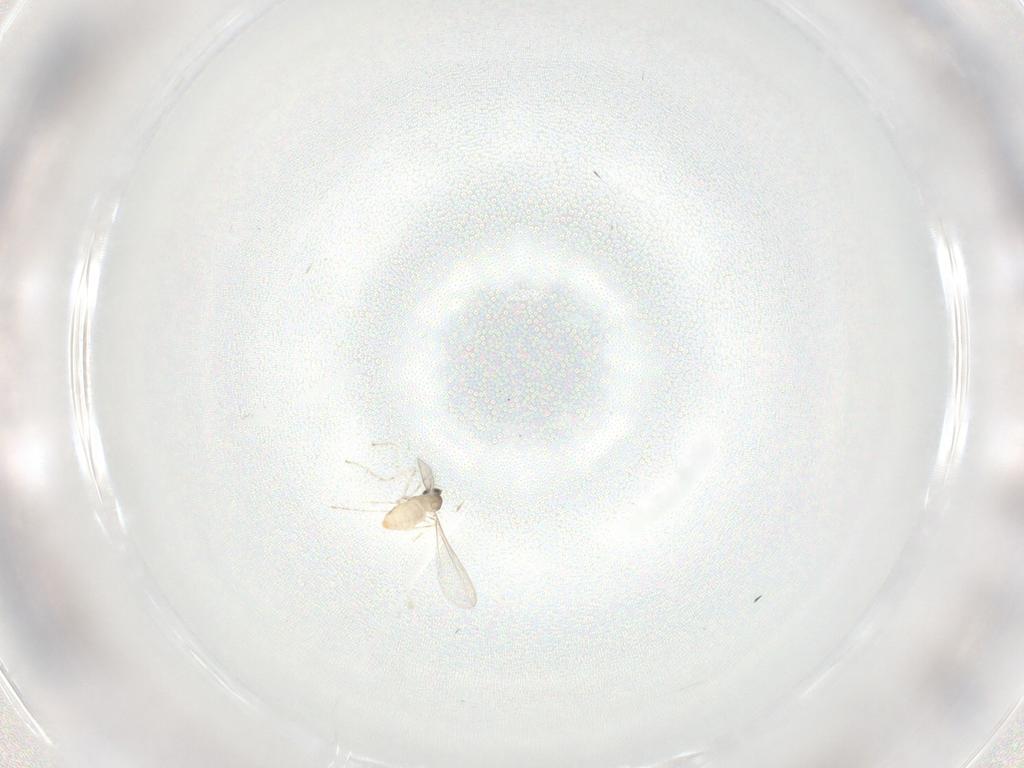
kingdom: Animalia
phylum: Arthropoda
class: Insecta
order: Diptera
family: Cecidomyiidae
